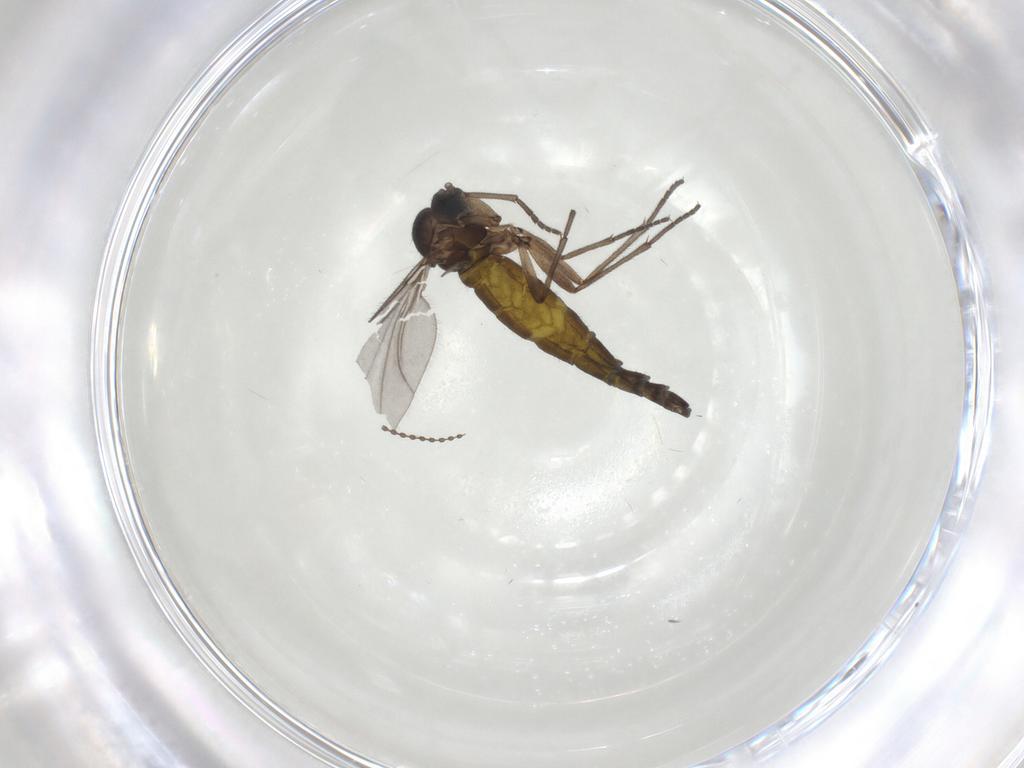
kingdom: Animalia
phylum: Arthropoda
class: Insecta
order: Diptera
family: Sciaridae
